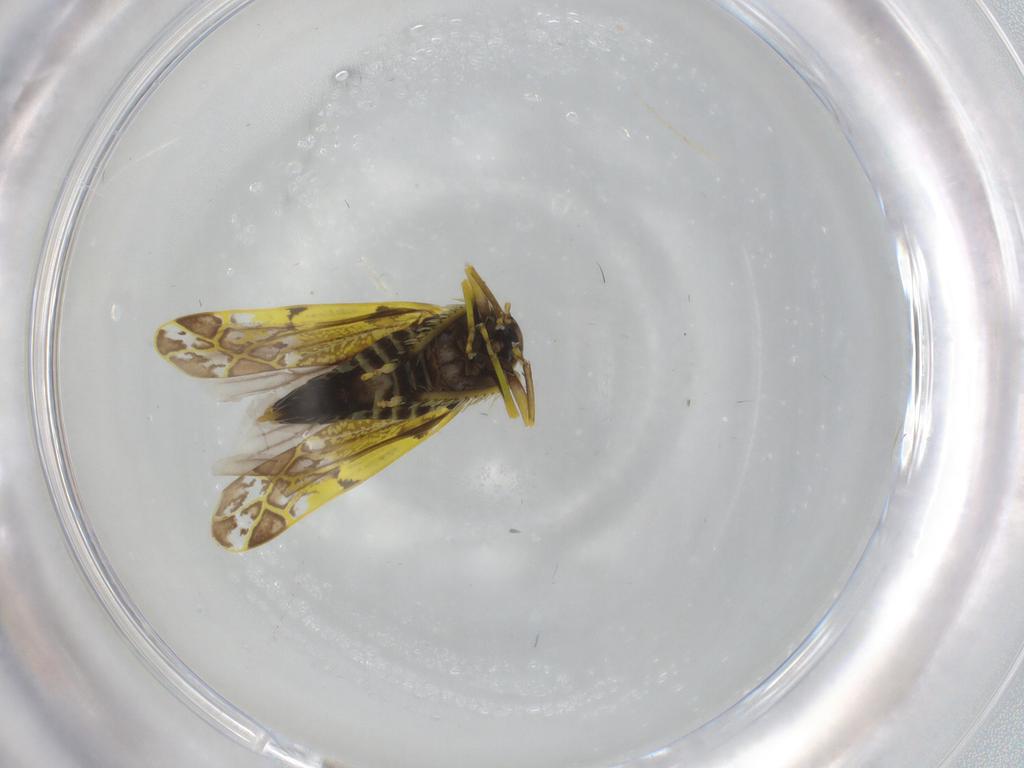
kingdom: Animalia
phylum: Arthropoda
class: Insecta
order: Hemiptera
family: Cicadellidae
